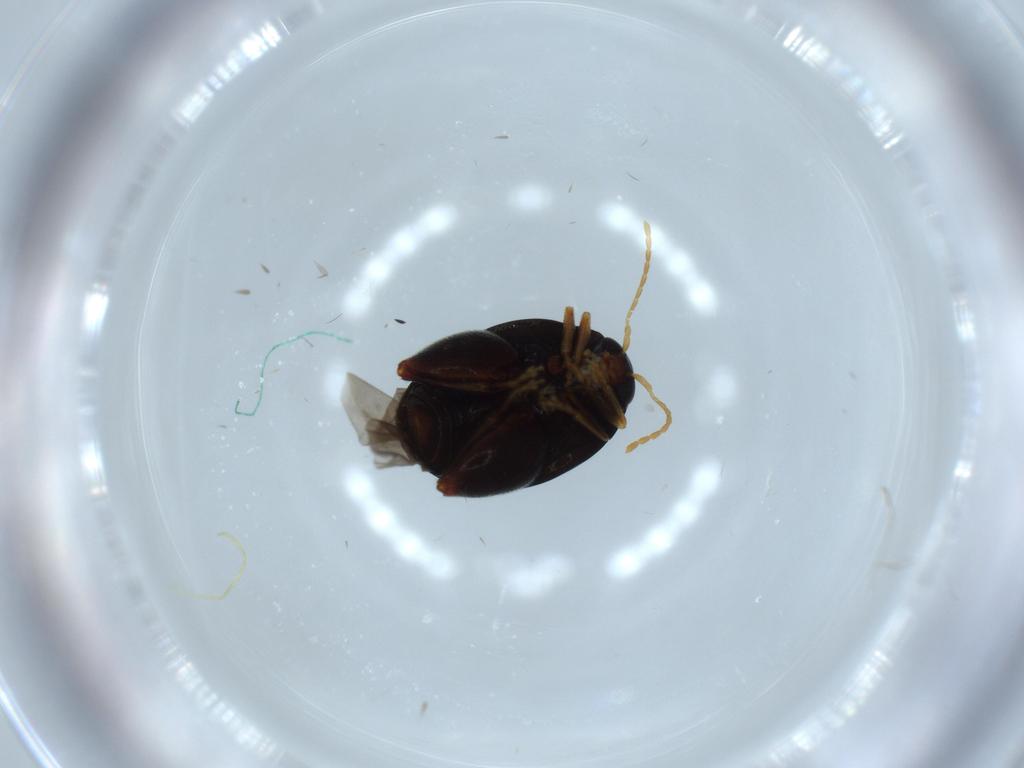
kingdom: Animalia
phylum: Arthropoda
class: Insecta
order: Coleoptera
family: Chrysomelidae
